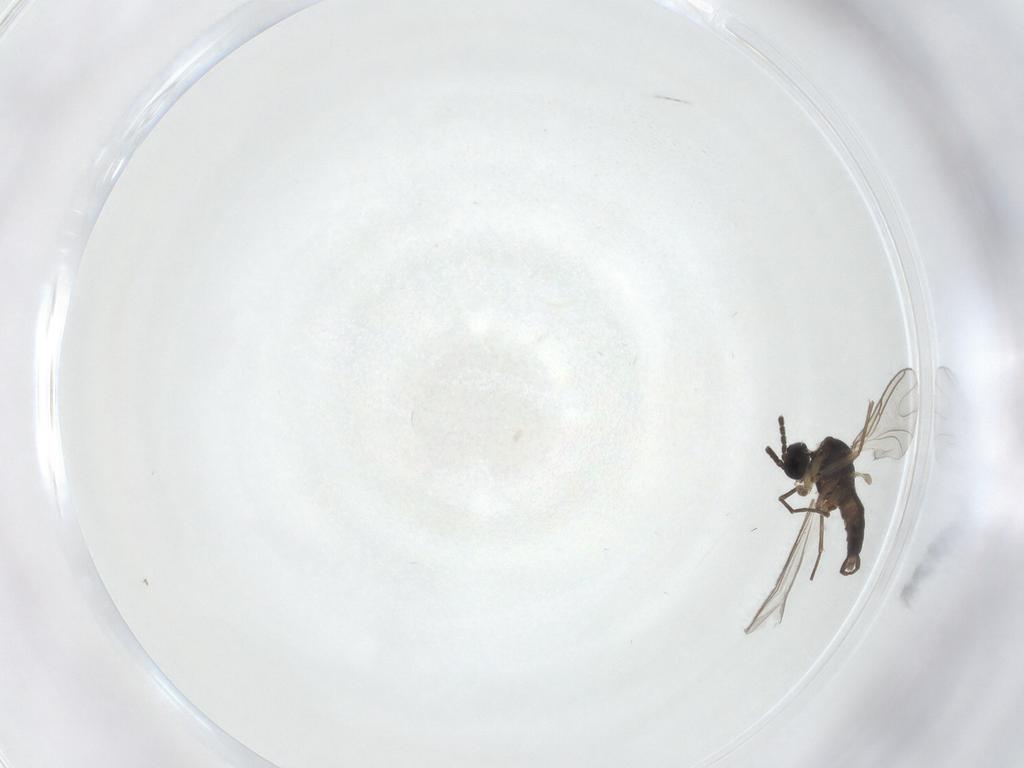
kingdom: Animalia
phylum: Arthropoda
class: Insecta
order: Diptera
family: Sciaridae
